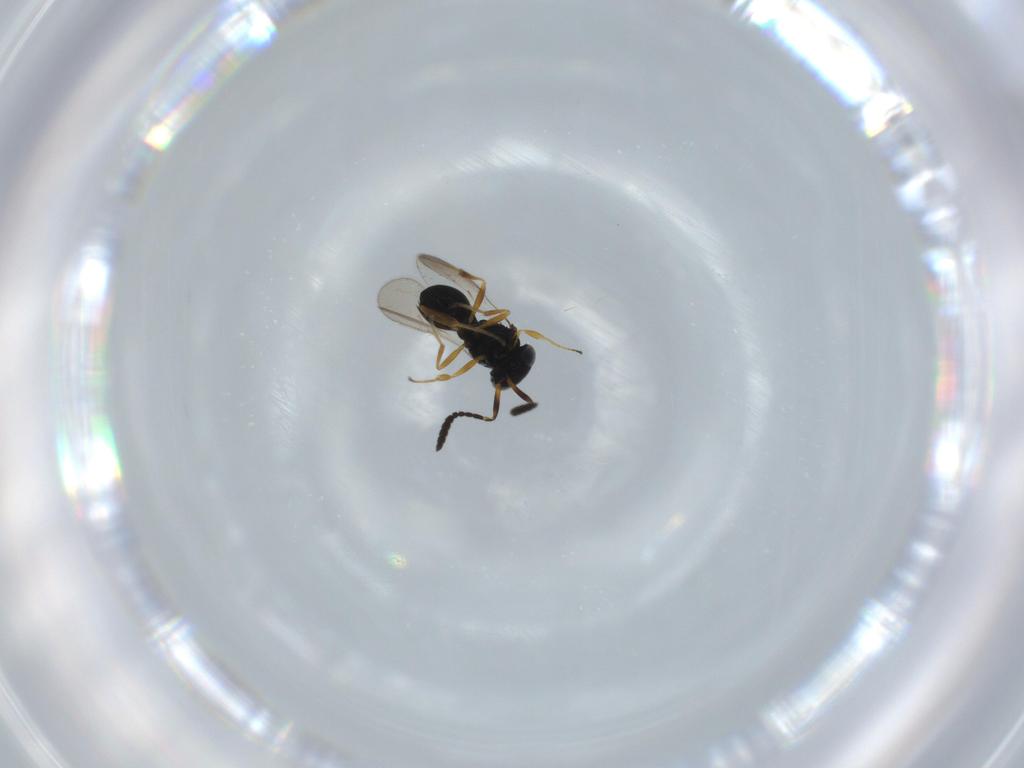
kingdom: Animalia
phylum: Arthropoda
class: Insecta
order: Hymenoptera
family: Scelionidae
